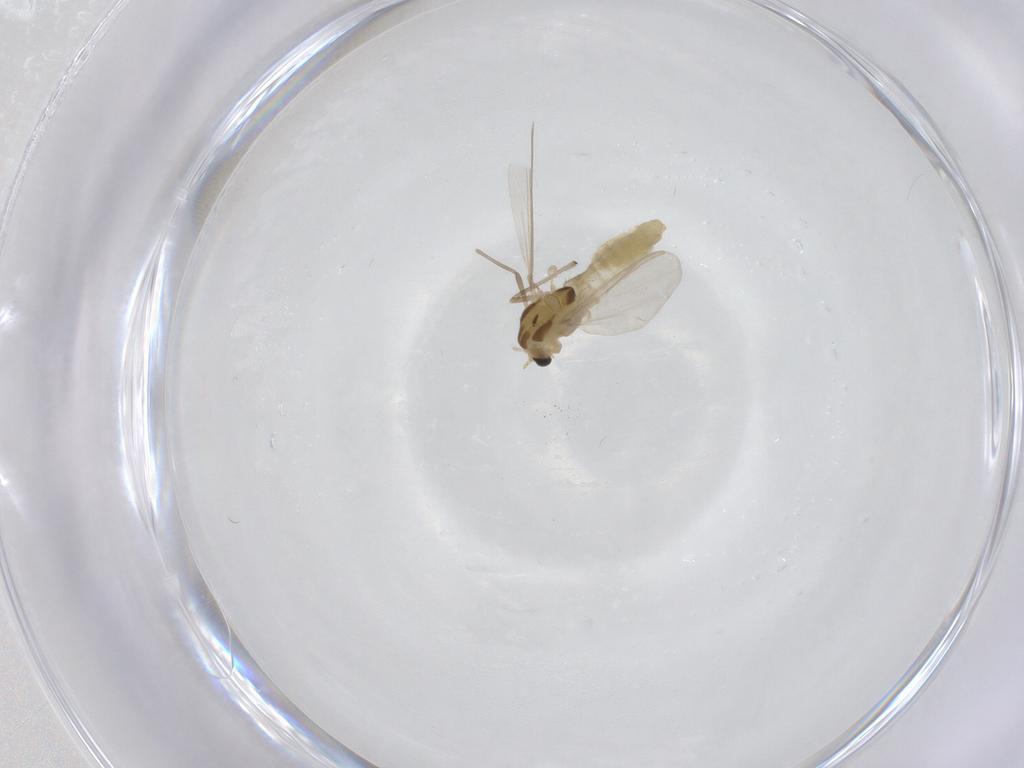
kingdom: Animalia
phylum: Arthropoda
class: Insecta
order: Diptera
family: Chironomidae
